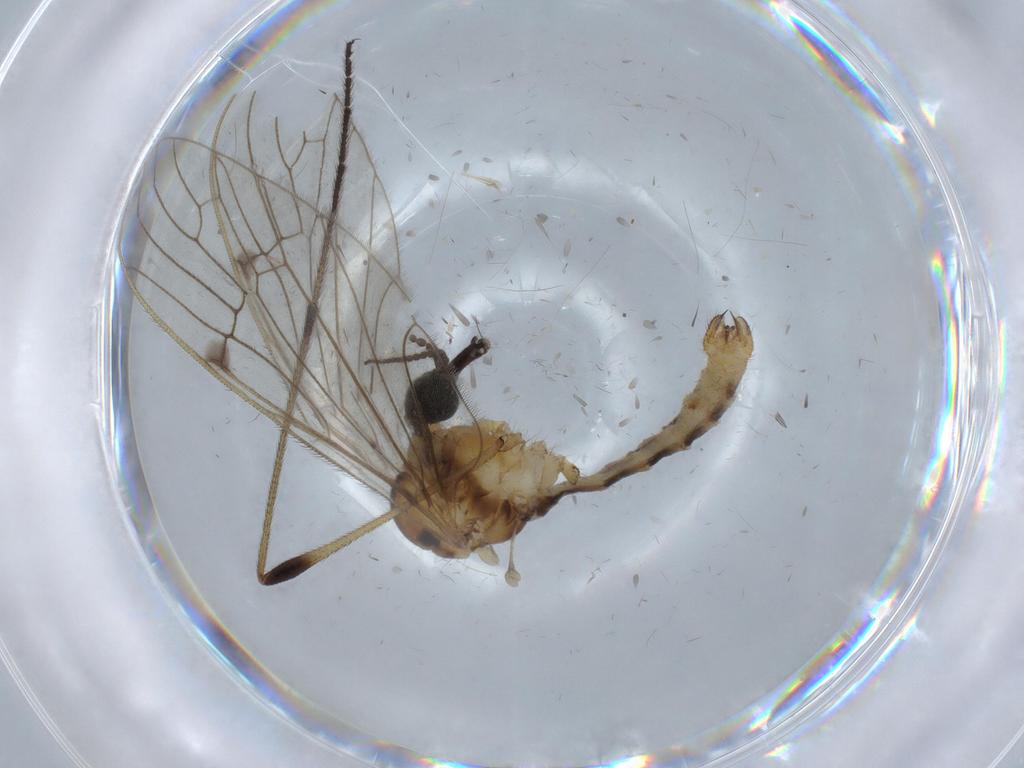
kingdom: Animalia
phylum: Arthropoda
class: Insecta
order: Diptera
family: Psychodidae
